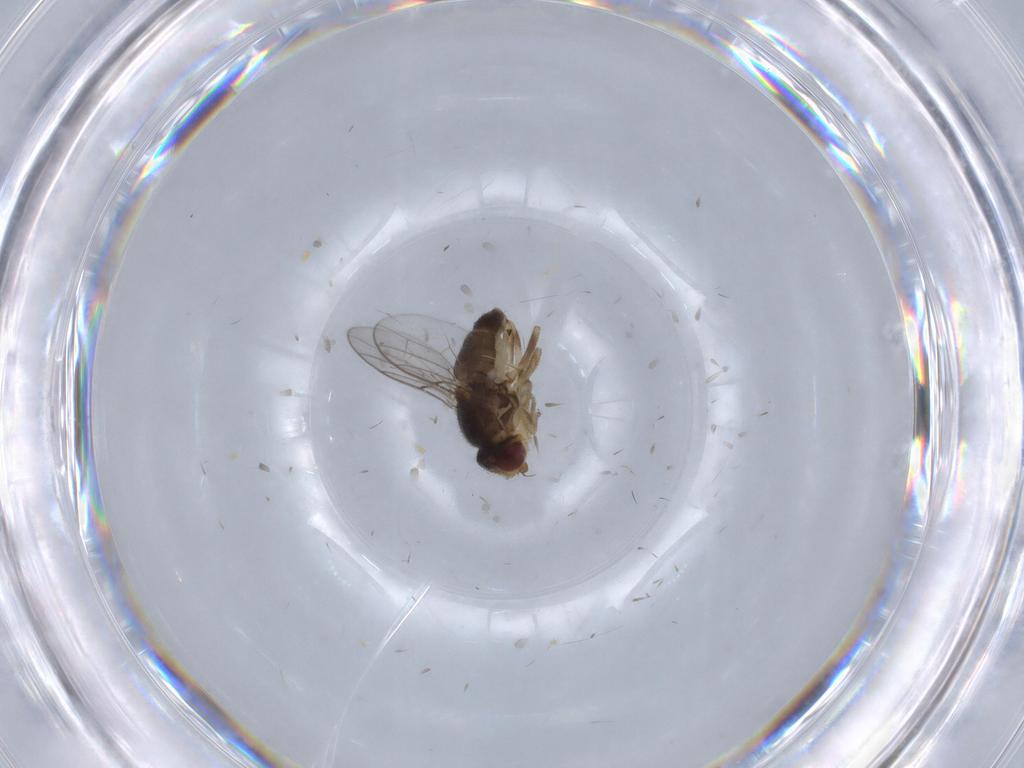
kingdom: Animalia
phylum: Arthropoda
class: Insecta
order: Diptera
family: Chloropidae
